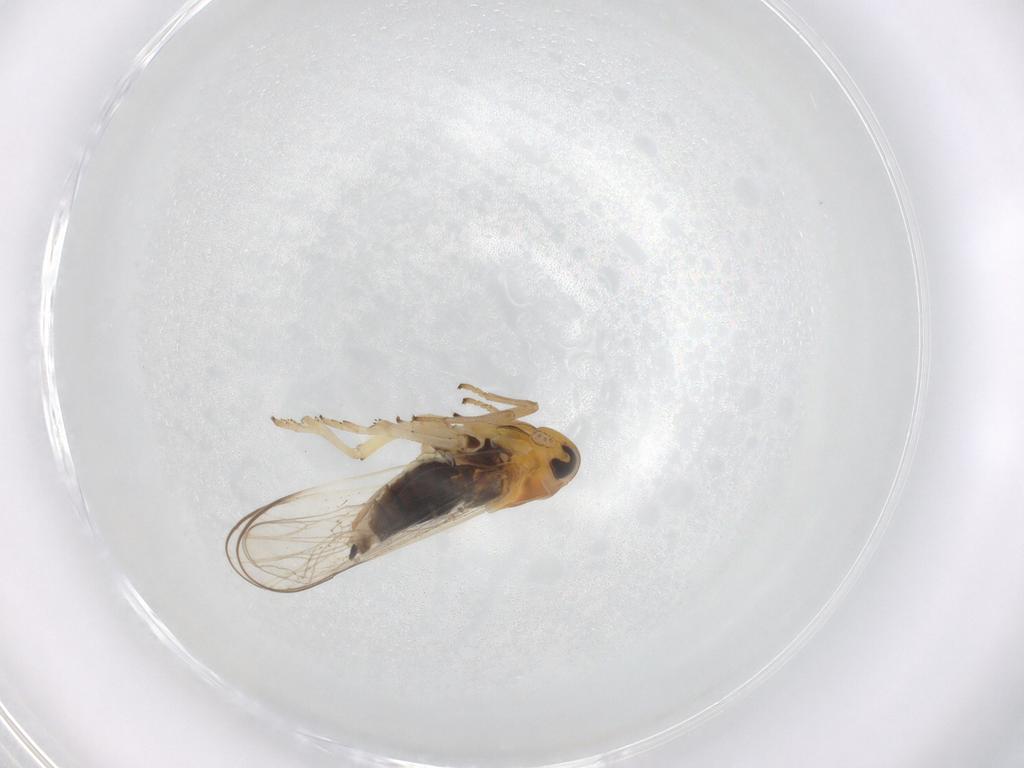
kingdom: Animalia
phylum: Arthropoda
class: Insecta
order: Hemiptera
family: Delphacidae
